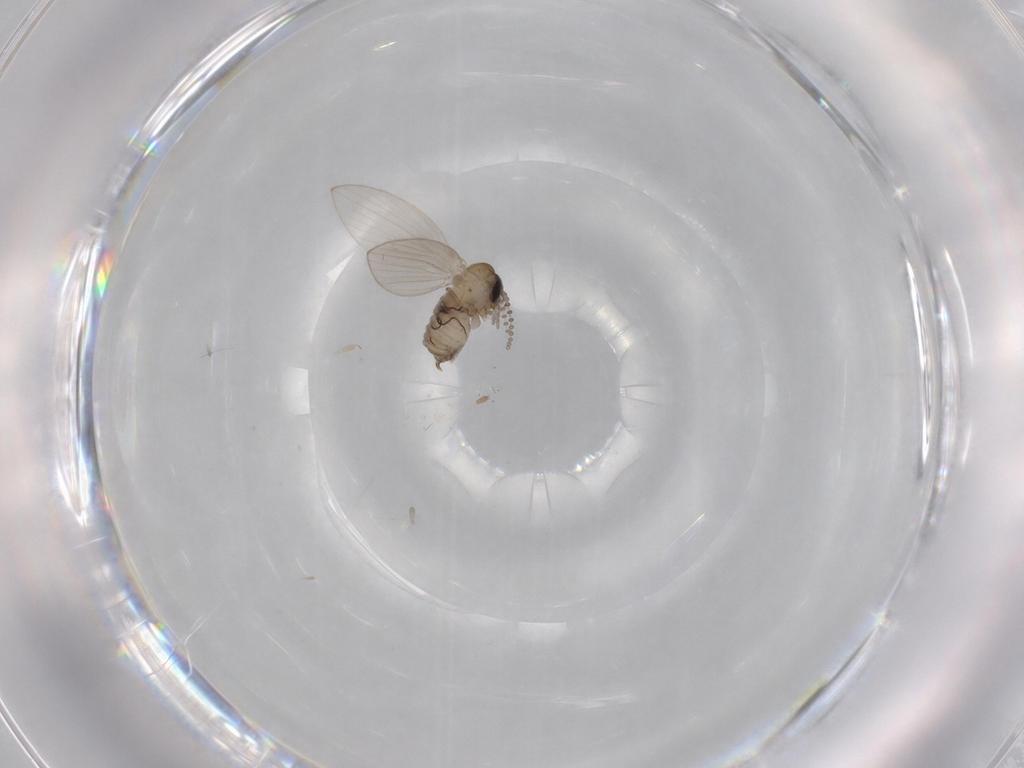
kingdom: Animalia
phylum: Arthropoda
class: Insecta
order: Diptera
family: Psychodidae
